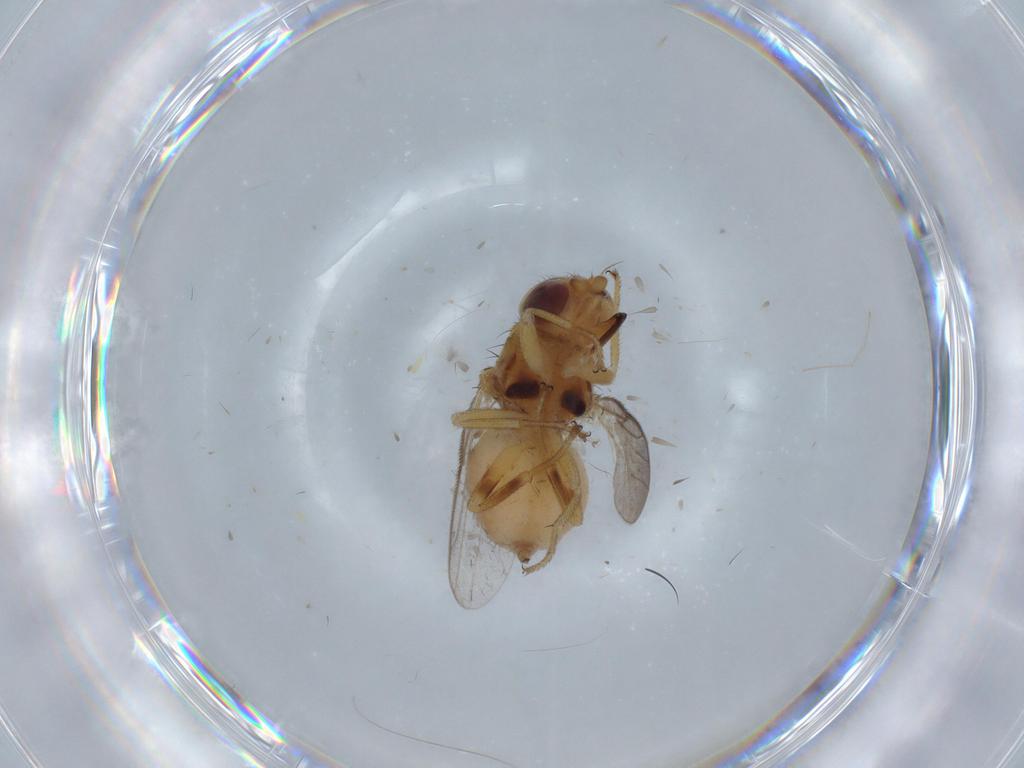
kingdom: Animalia
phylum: Arthropoda
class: Insecta
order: Diptera
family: Chloropidae
